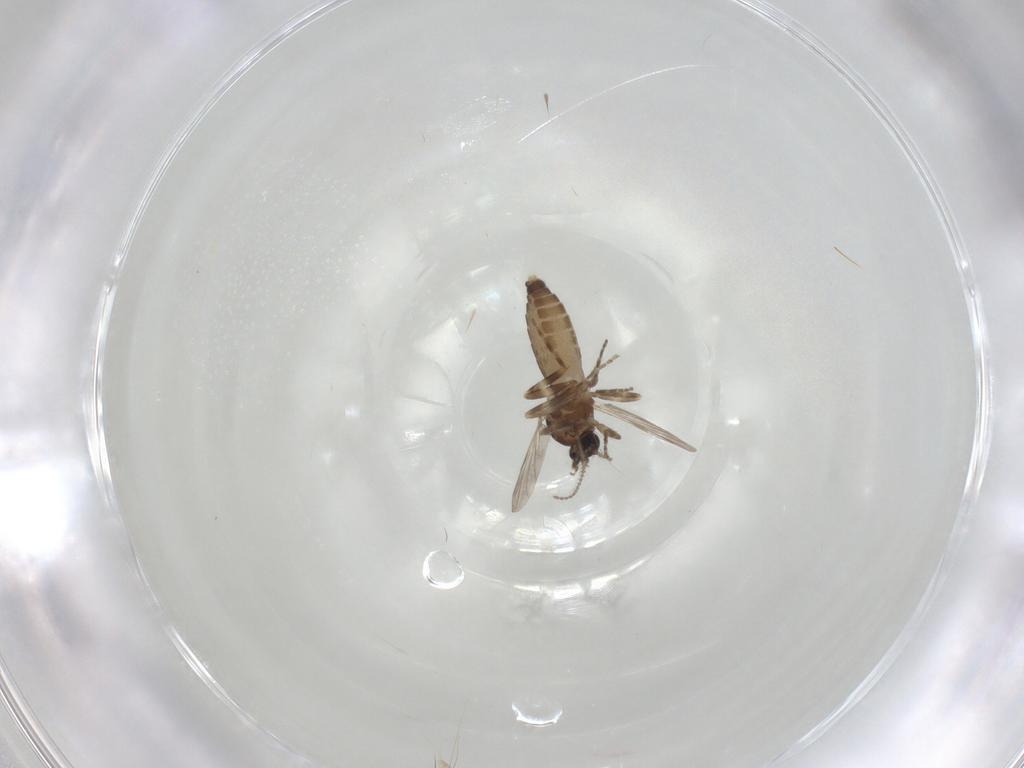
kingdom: Animalia
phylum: Arthropoda
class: Insecta
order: Diptera
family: Ceratopogonidae
